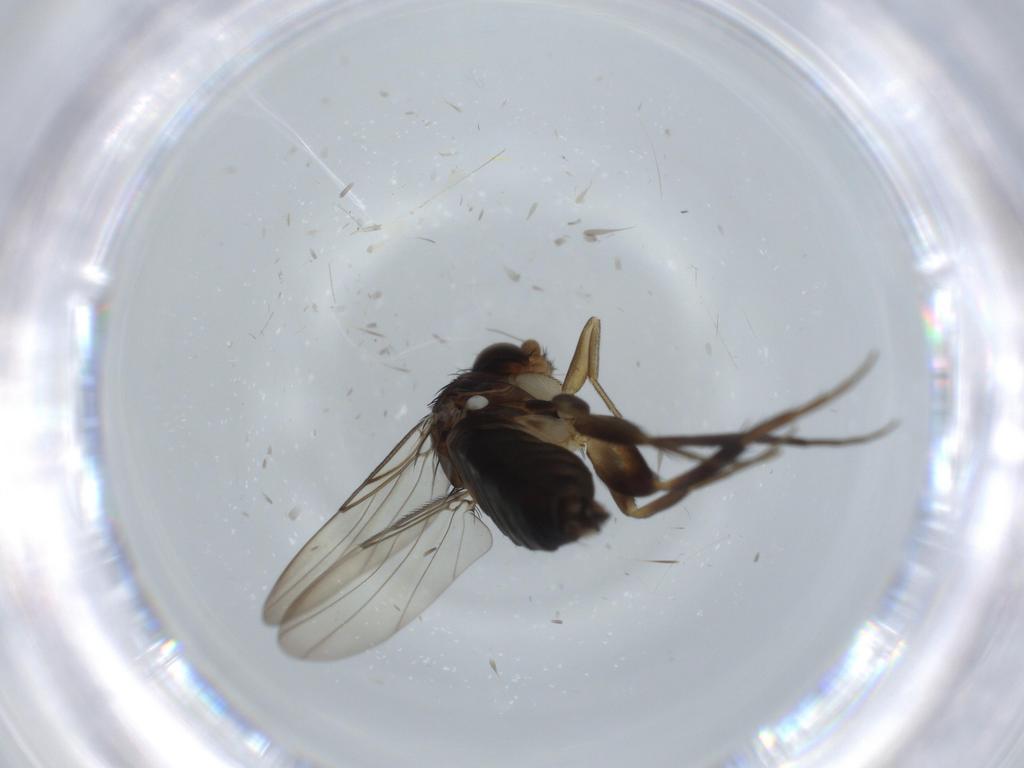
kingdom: Animalia
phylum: Arthropoda
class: Insecta
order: Diptera
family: Phoridae
